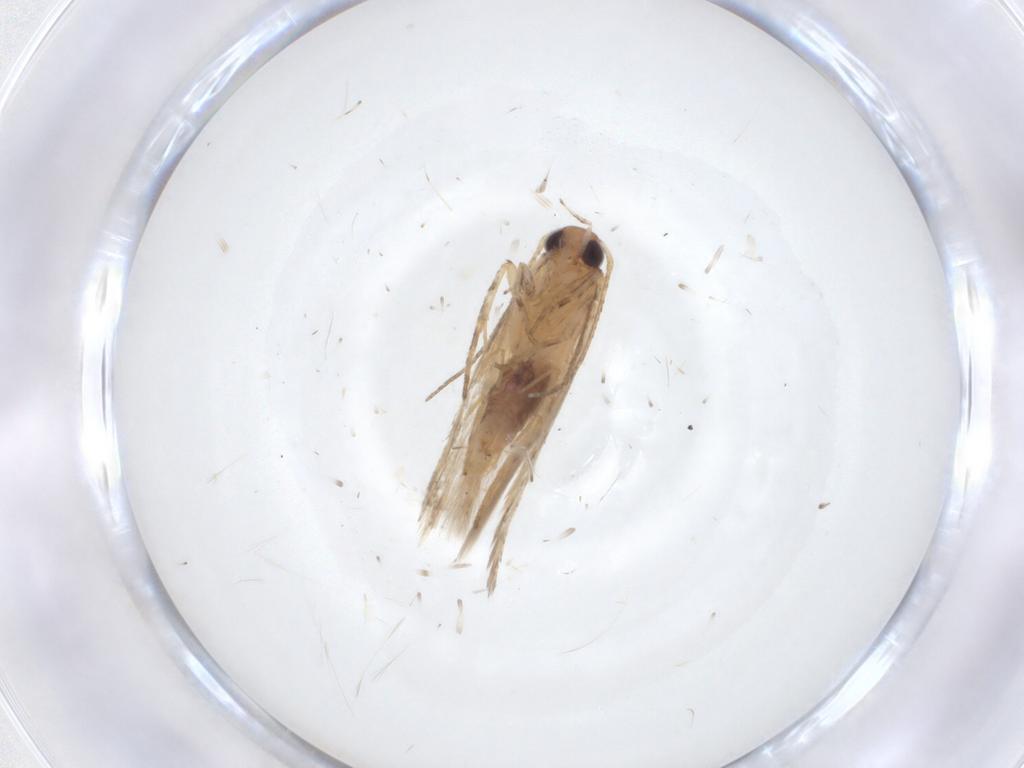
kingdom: Animalia
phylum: Arthropoda
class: Insecta
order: Lepidoptera
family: Gelechiidae
